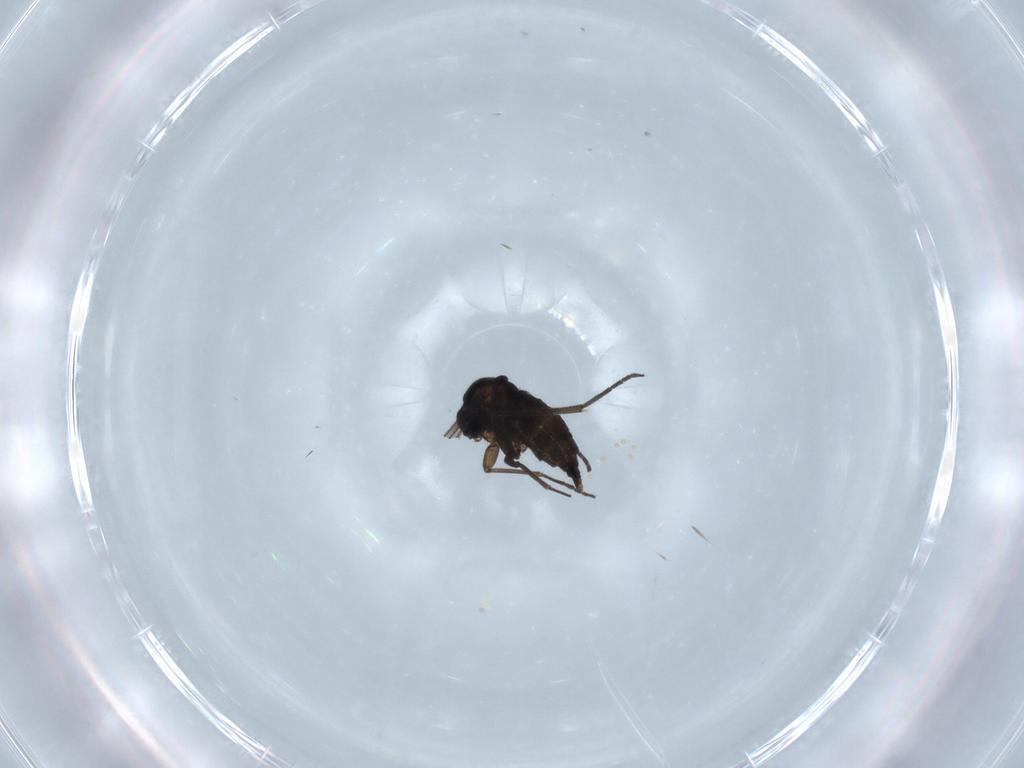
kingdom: Animalia
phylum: Arthropoda
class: Insecta
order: Diptera
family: Sciaridae
